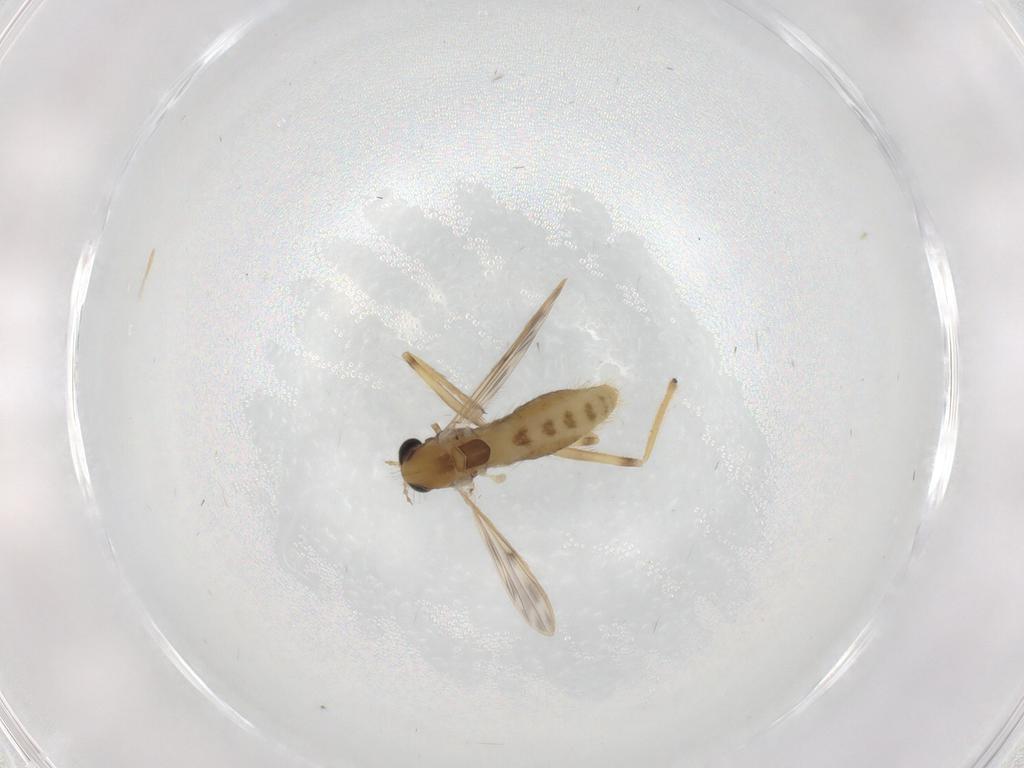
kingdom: Animalia
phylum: Arthropoda
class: Insecta
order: Diptera
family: Chironomidae
